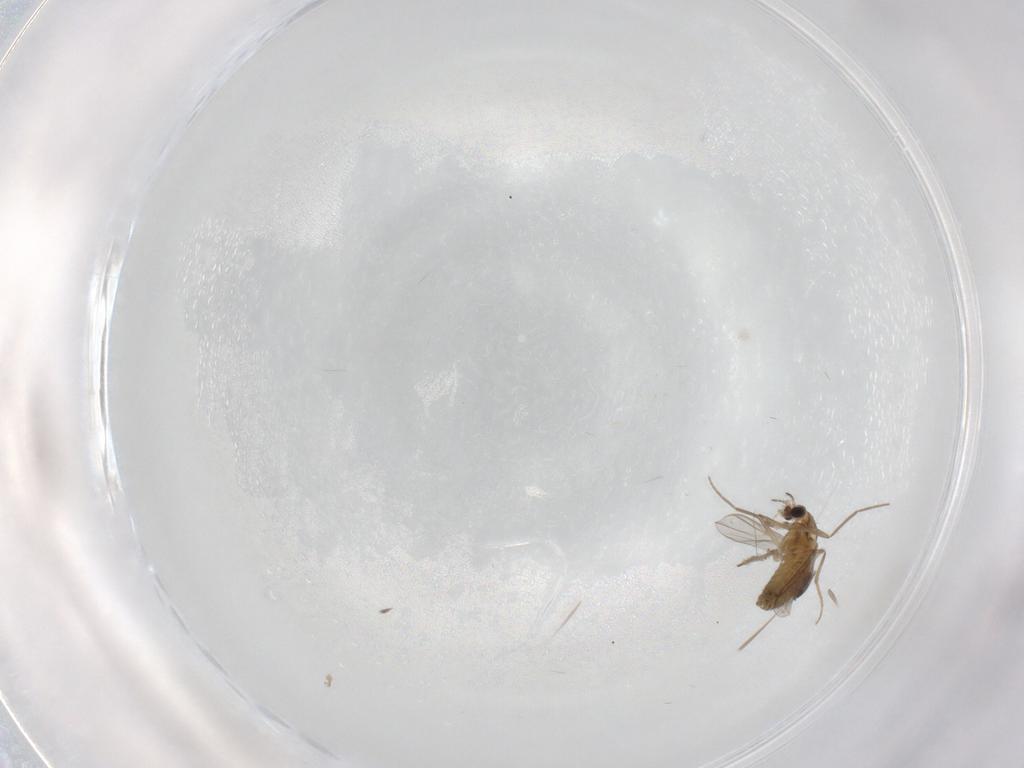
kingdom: Animalia
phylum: Arthropoda
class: Insecta
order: Diptera
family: Chironomidae
